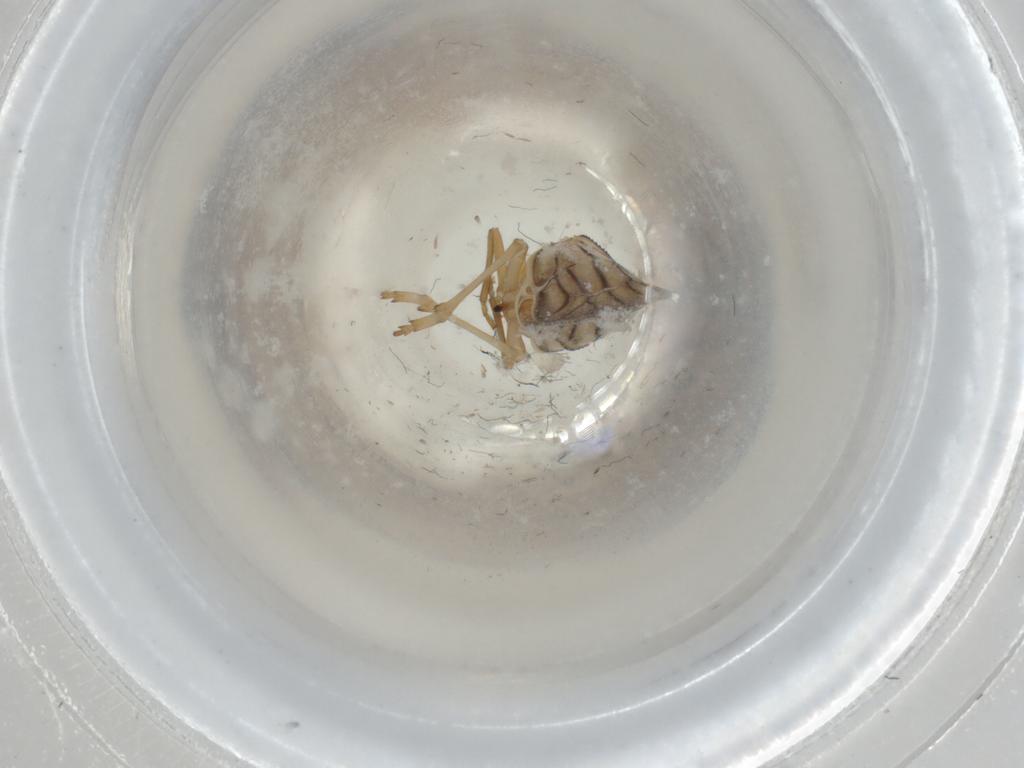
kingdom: Animalia
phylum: Arthropoda
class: Insecta
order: Hemiptera
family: Meenoplidae
